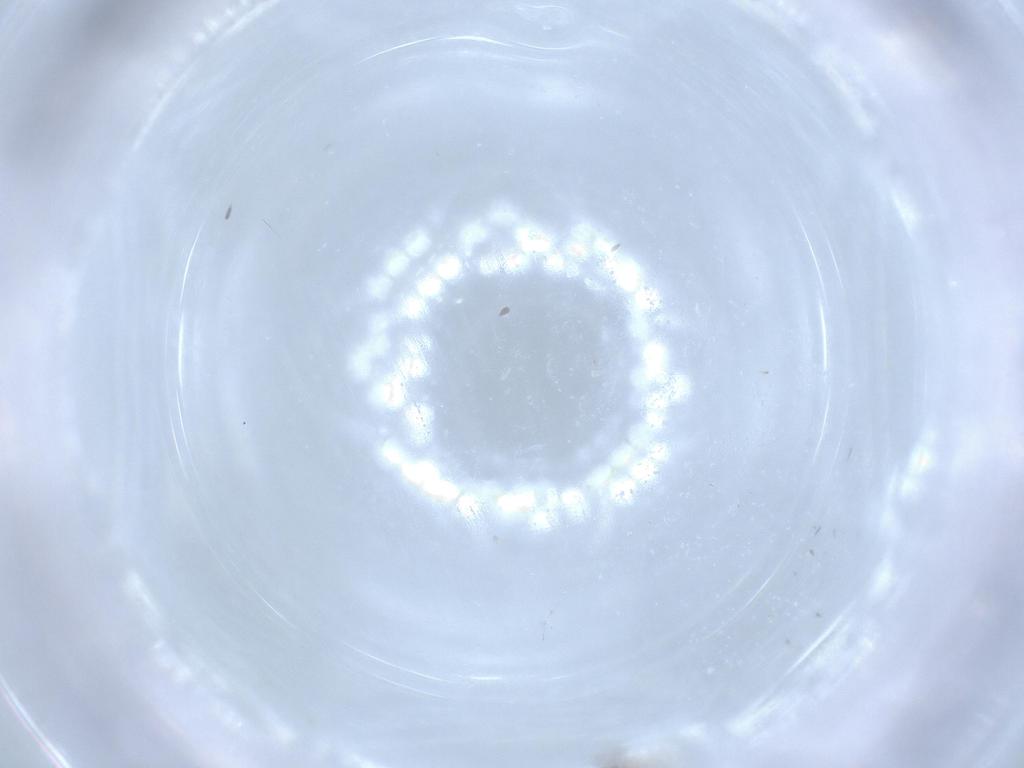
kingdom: Animalia
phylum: Arthropoda
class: Insecta
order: Diptera
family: Cecidomyiidae
